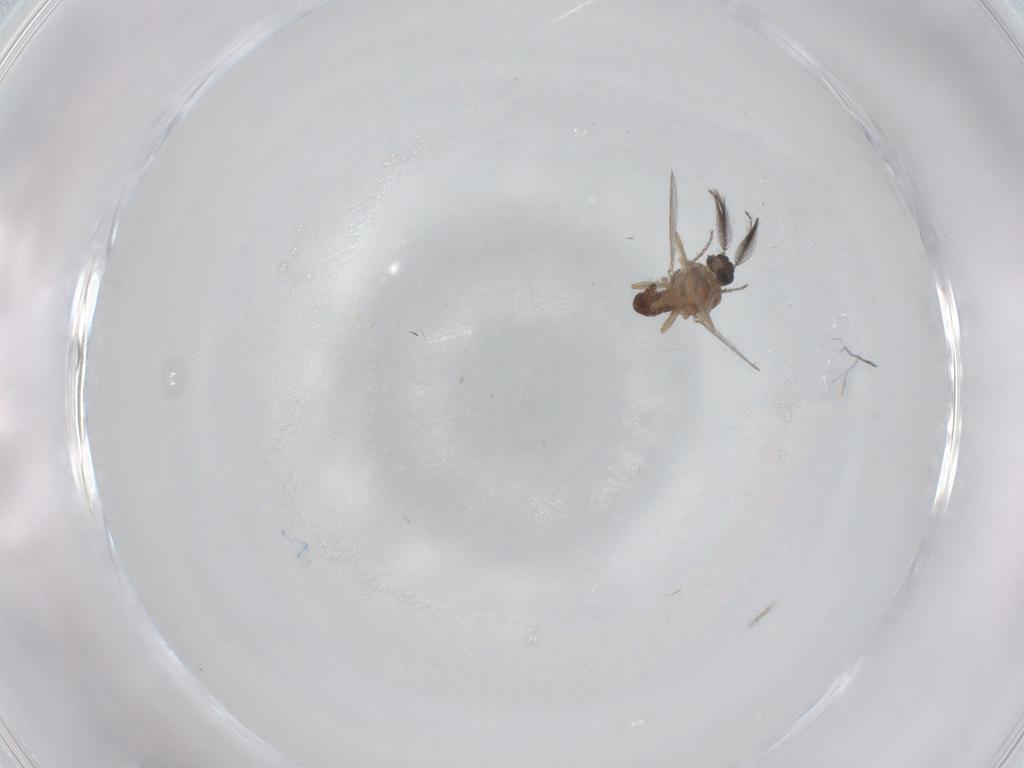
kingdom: Animalia
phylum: Arthropoda
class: Insecta
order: Diptera
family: Ceratopogonidae
